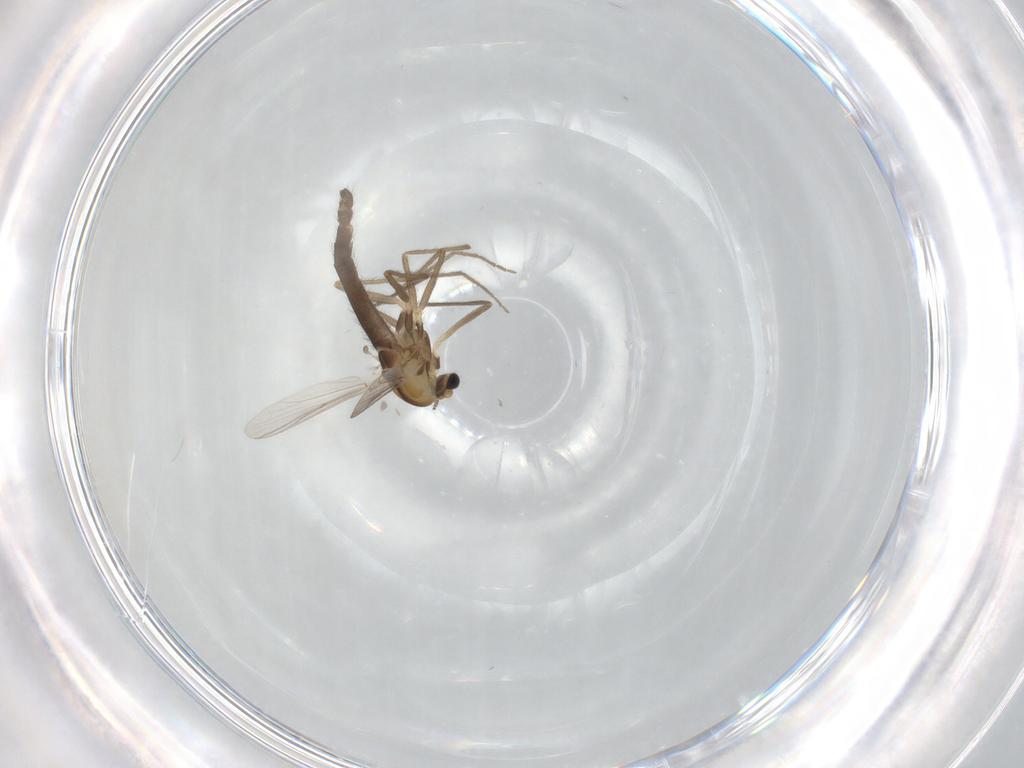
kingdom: Animalia
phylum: Arthropoda
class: Insecta
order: Diptera
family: Chironomidae
